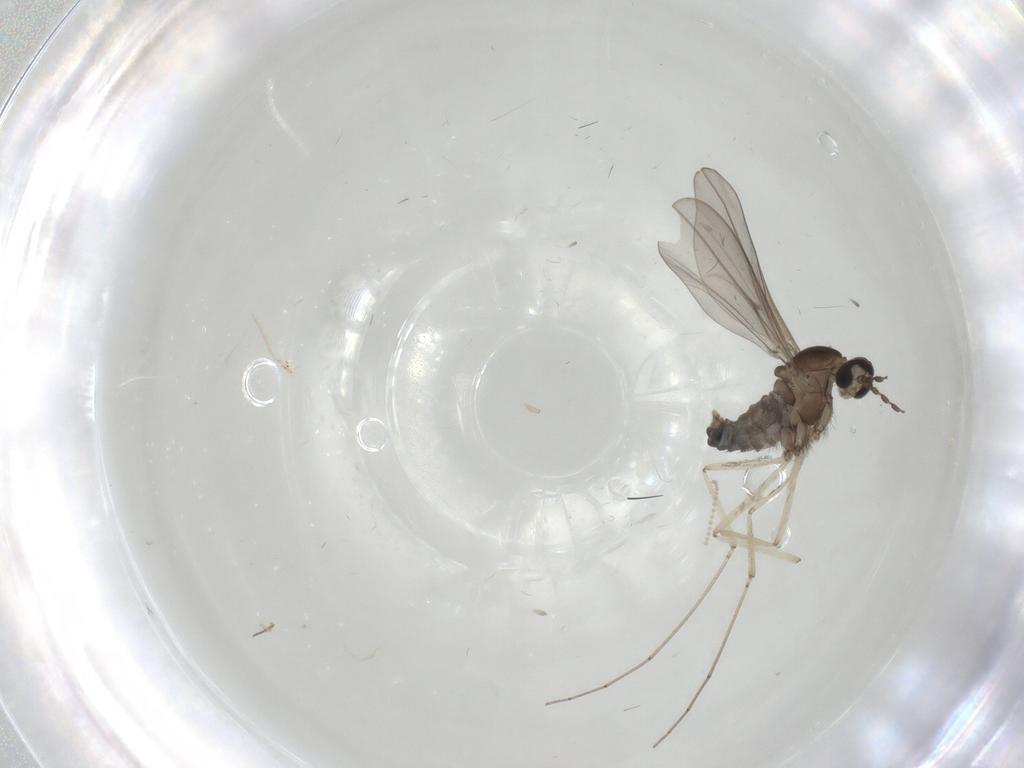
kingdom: Animalia
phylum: Arthropoda
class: Insecta
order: Diptera
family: Cecidomyiidae
